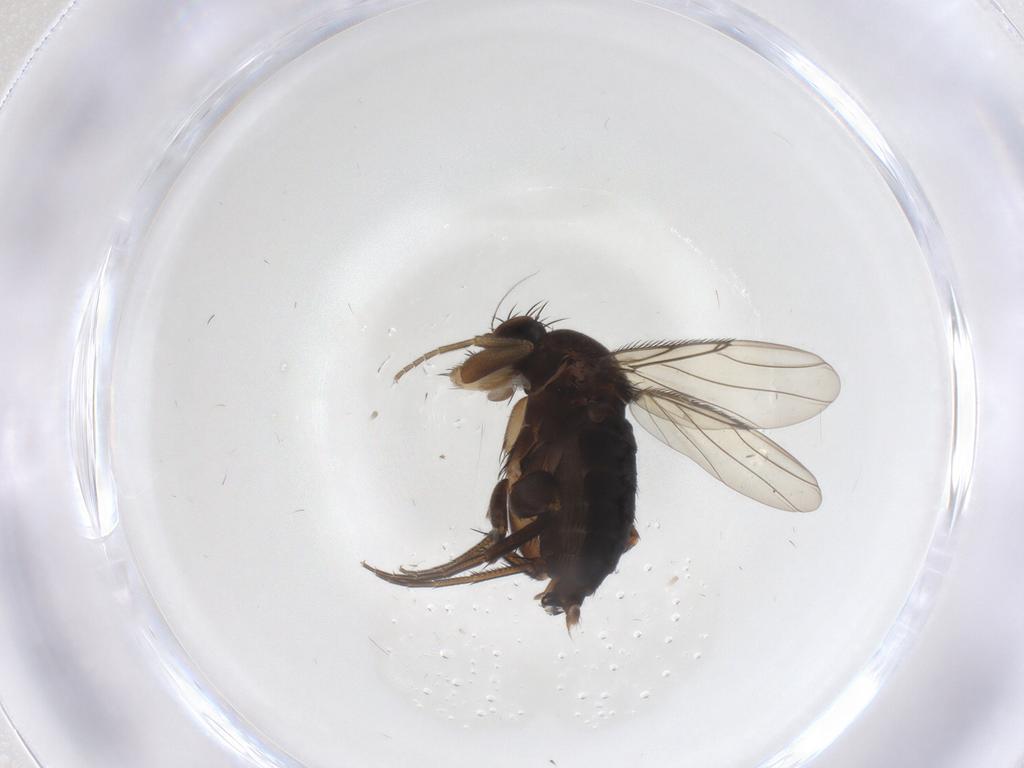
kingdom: Animalia
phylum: Arthropoda
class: Insecta
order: Diptera
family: Phoridae
